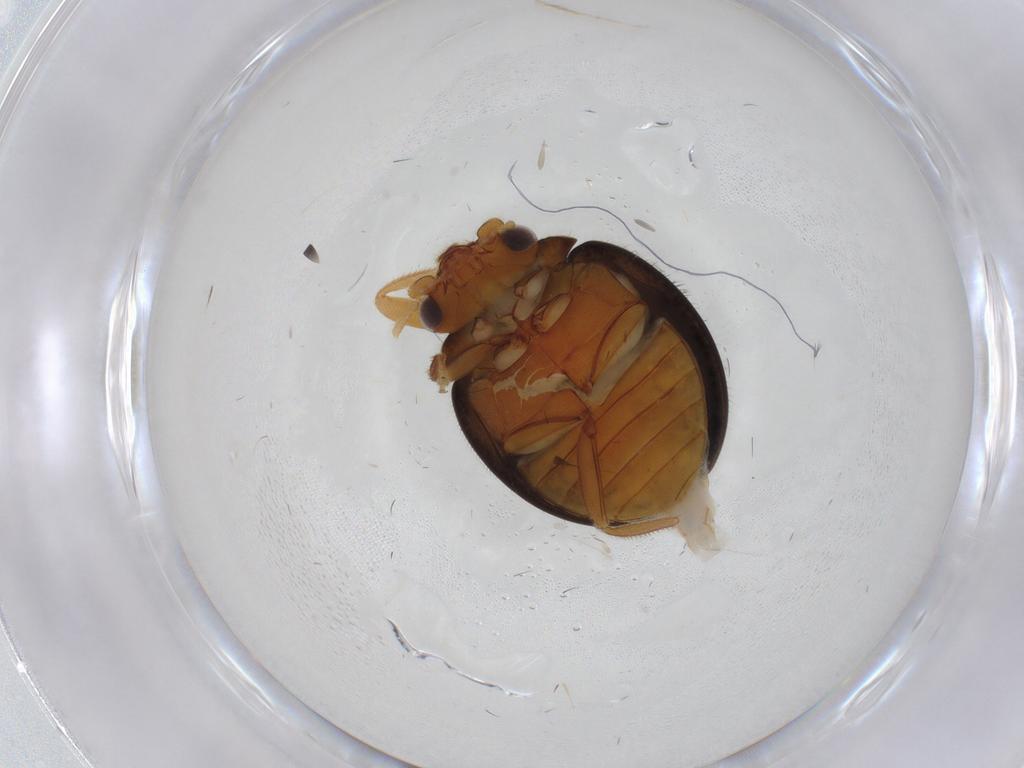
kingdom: Animalia
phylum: Arthropoda
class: Insecta
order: Coleoptera
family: Scirtidae
